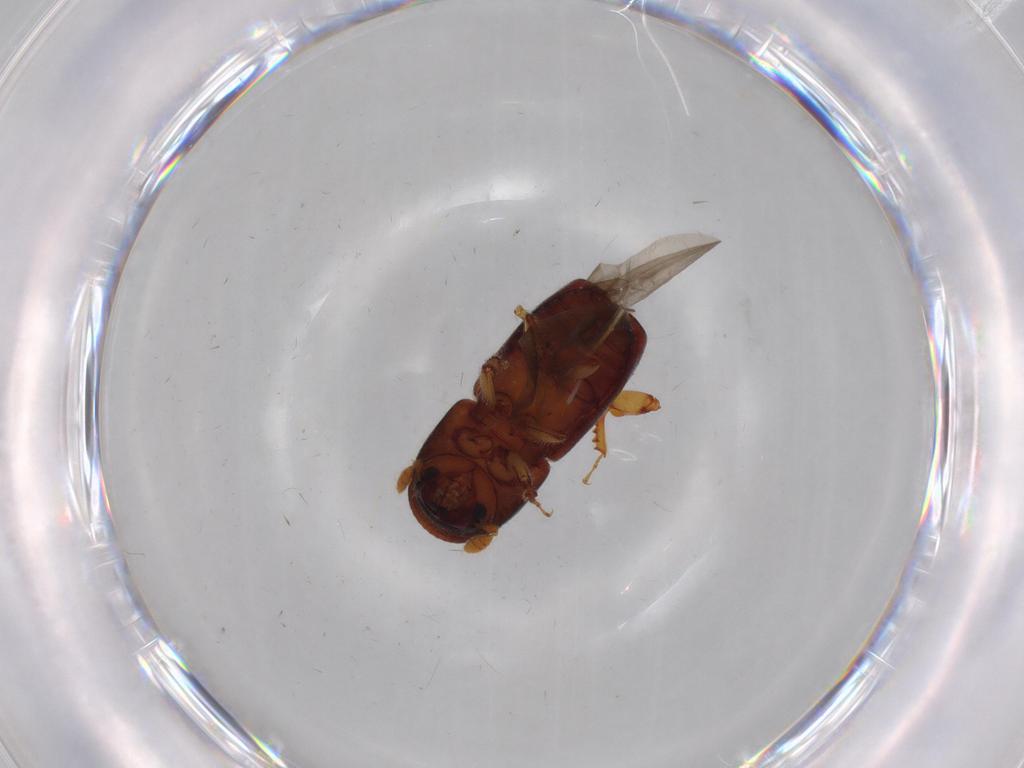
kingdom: Animalia
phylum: Arthropoda
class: Insecta
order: Coleoptera
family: Curculionidae
